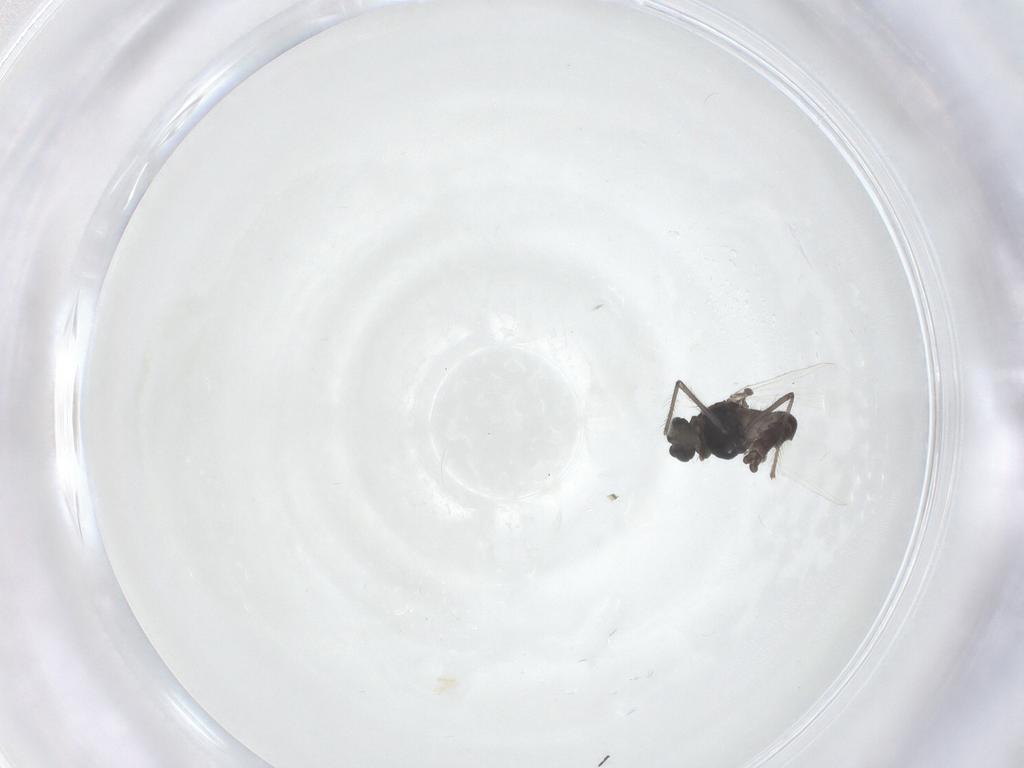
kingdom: Animalia
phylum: Arthropoda
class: Insecta
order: Diptera
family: Chironomidae
